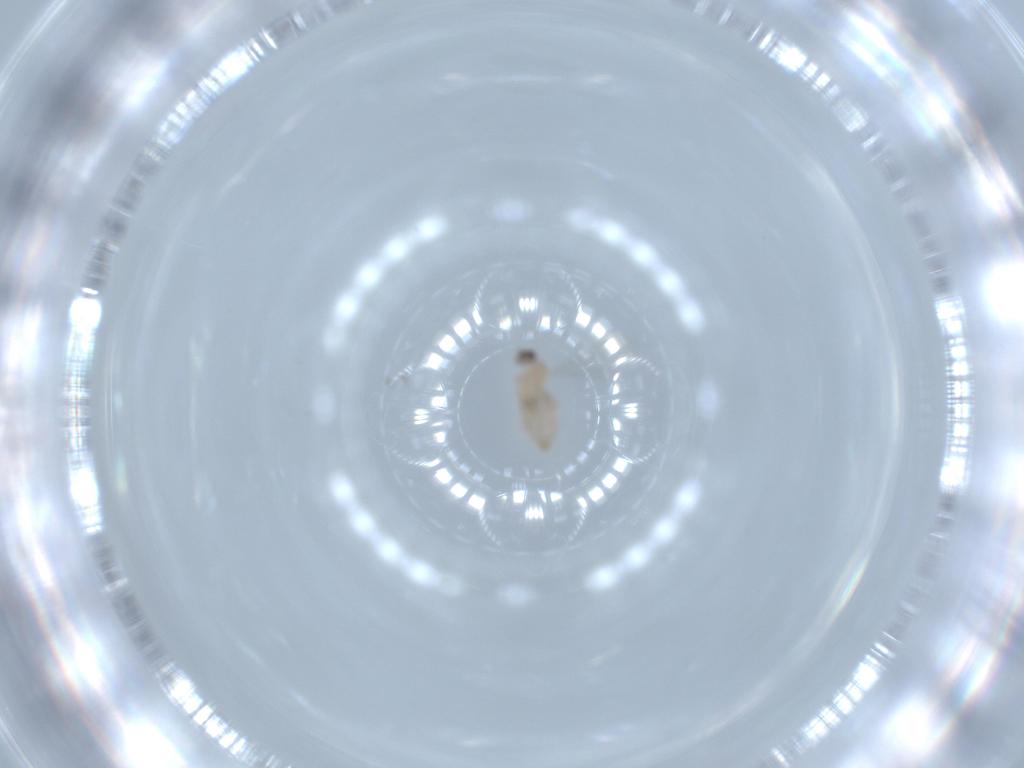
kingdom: Animalia
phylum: Arthropoda
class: Insecta
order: Diptera
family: Cecidomyiidae
